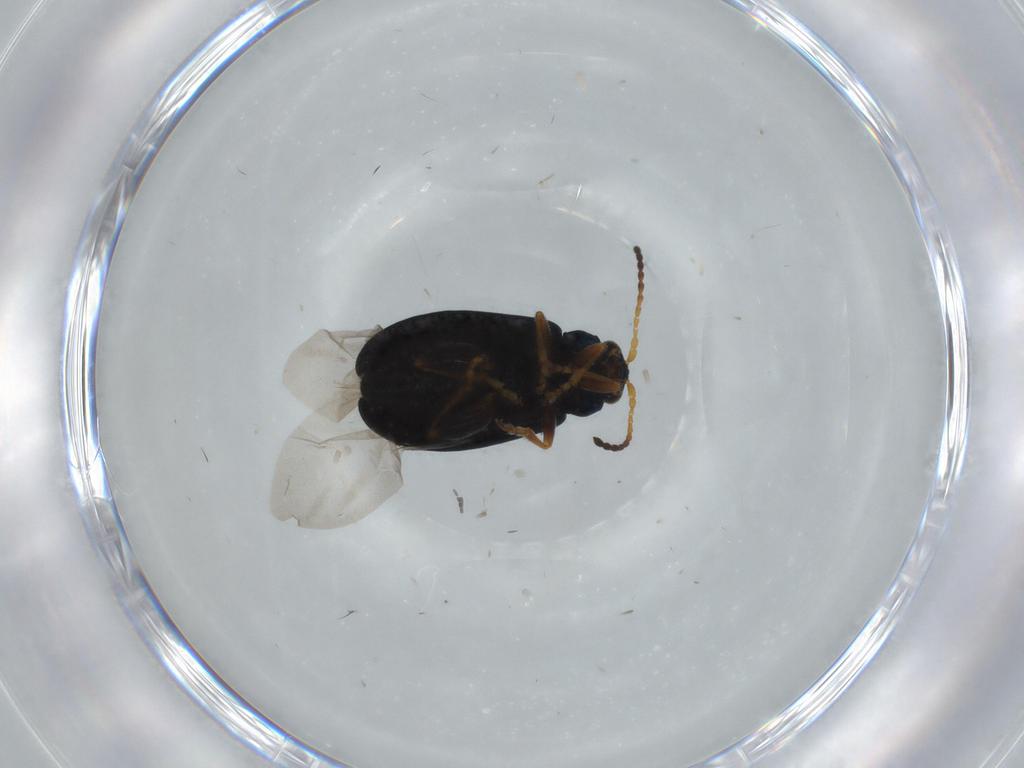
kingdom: Animalia
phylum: Arthropoda
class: Insecta
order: Coleoptera
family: Chrysomelidae
